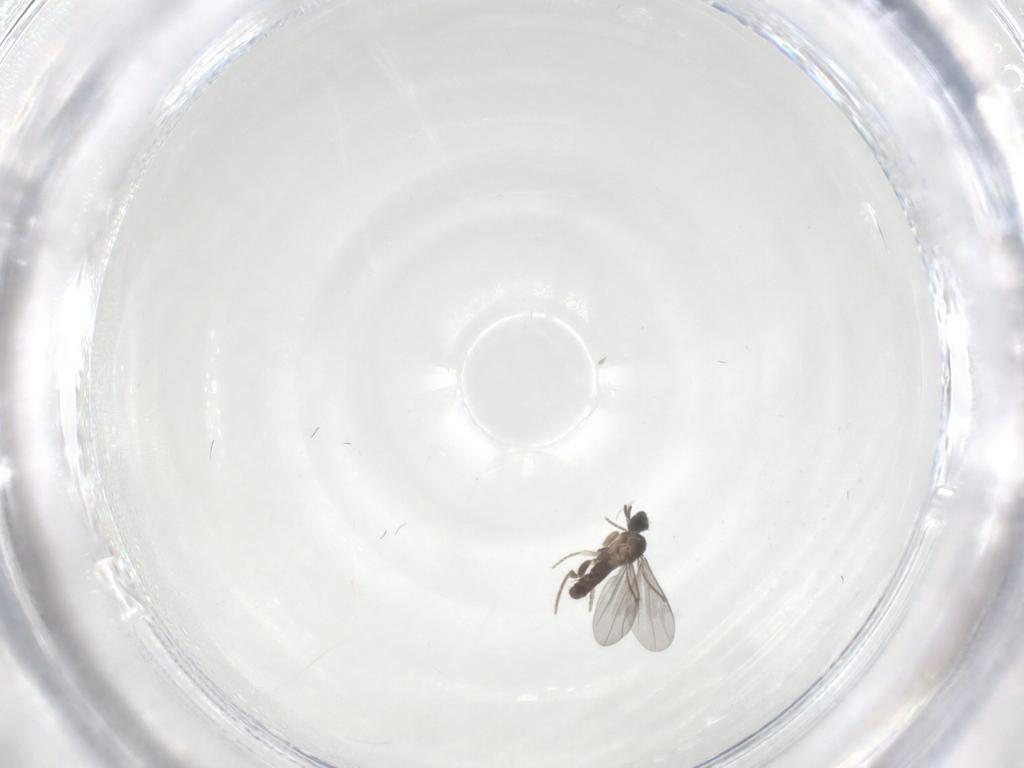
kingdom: Animalia
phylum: Arthropoda
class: Insecta
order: Diptera
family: Phoridae
